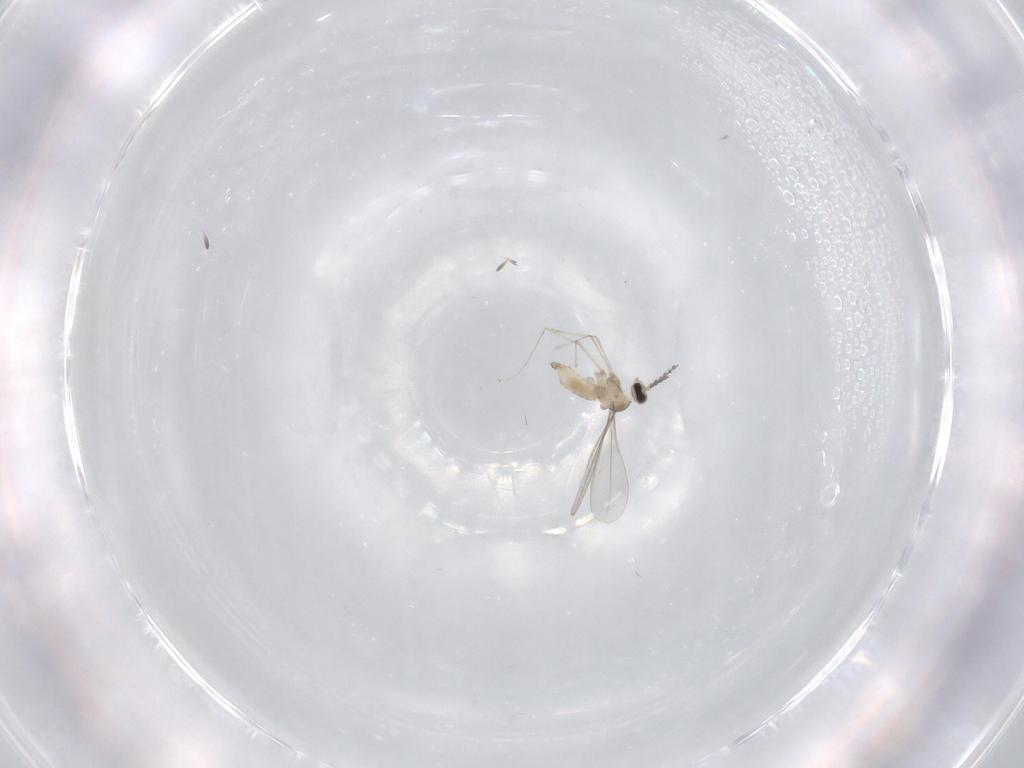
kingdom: Animalia
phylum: Arthropoda
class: Insecta
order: Diptera
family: Cecidomyiidae
